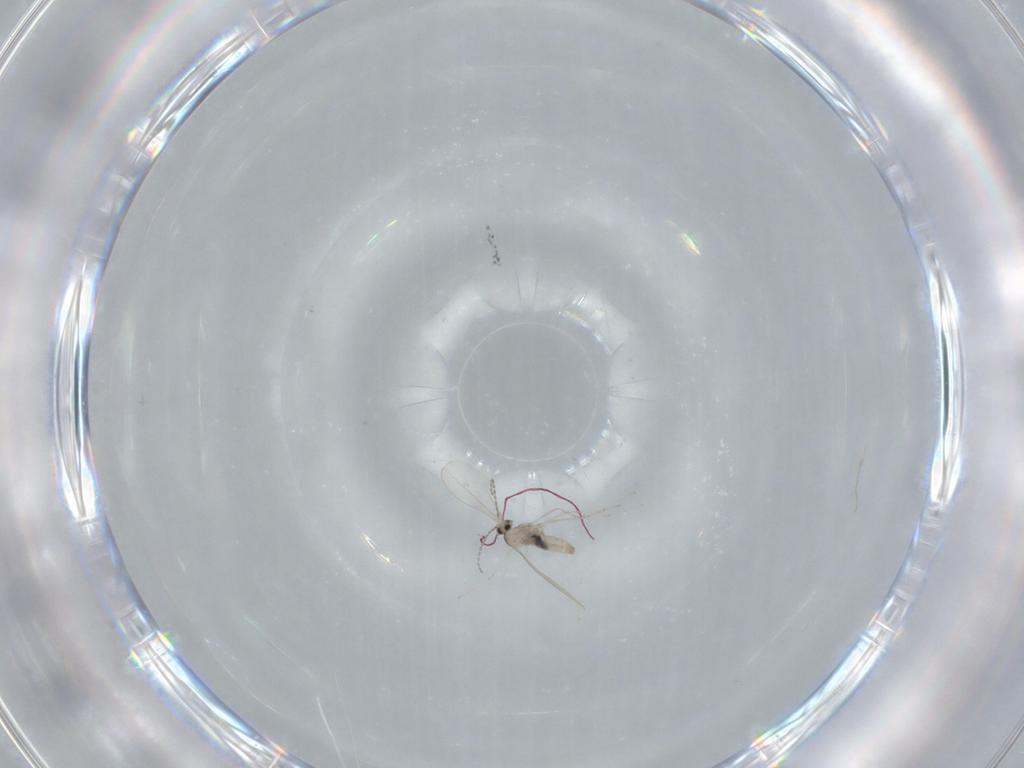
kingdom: Animalia
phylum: Arthropoda
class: Insecta
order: Diptera
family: Cecidomyiidae
